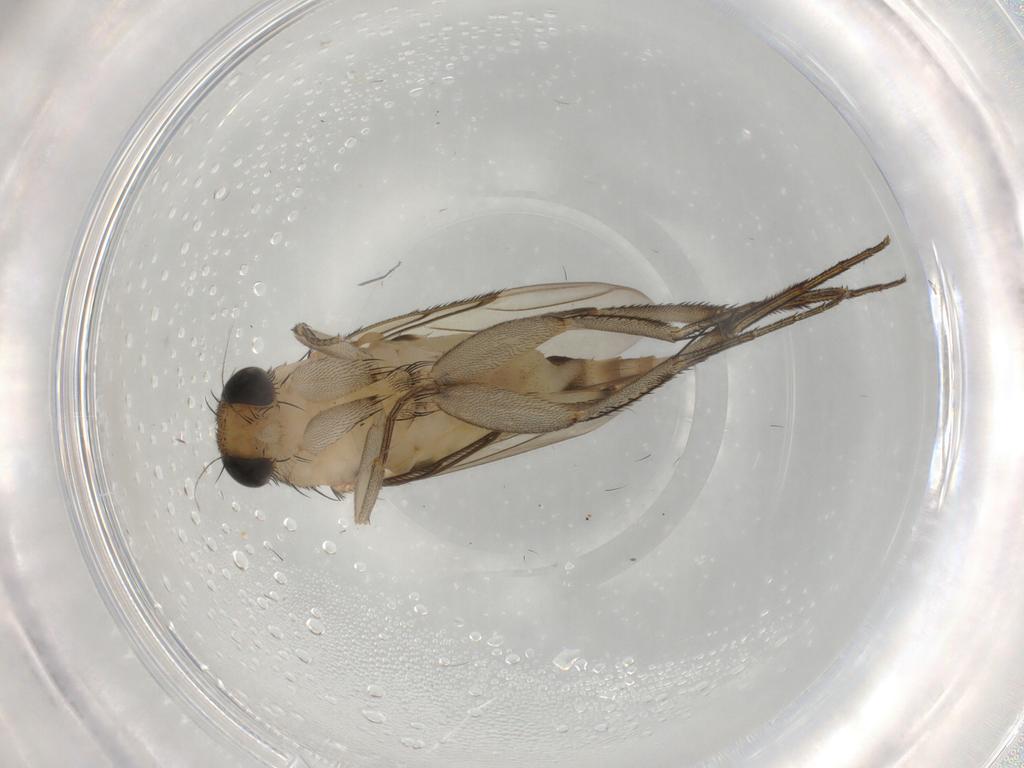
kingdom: Animalia
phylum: Arthropoda
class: Insecta
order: Diptera
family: Phoridae
